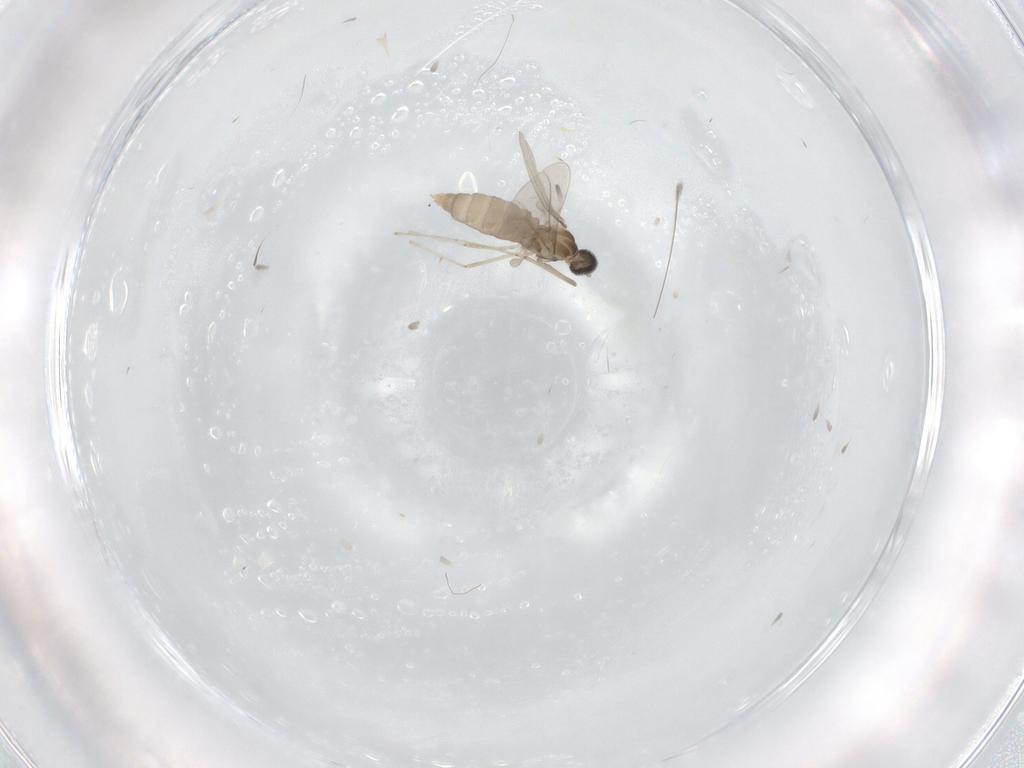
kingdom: Animalia
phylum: Arthropoda
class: Insecta
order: Diptera
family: Cecidomyiidae
